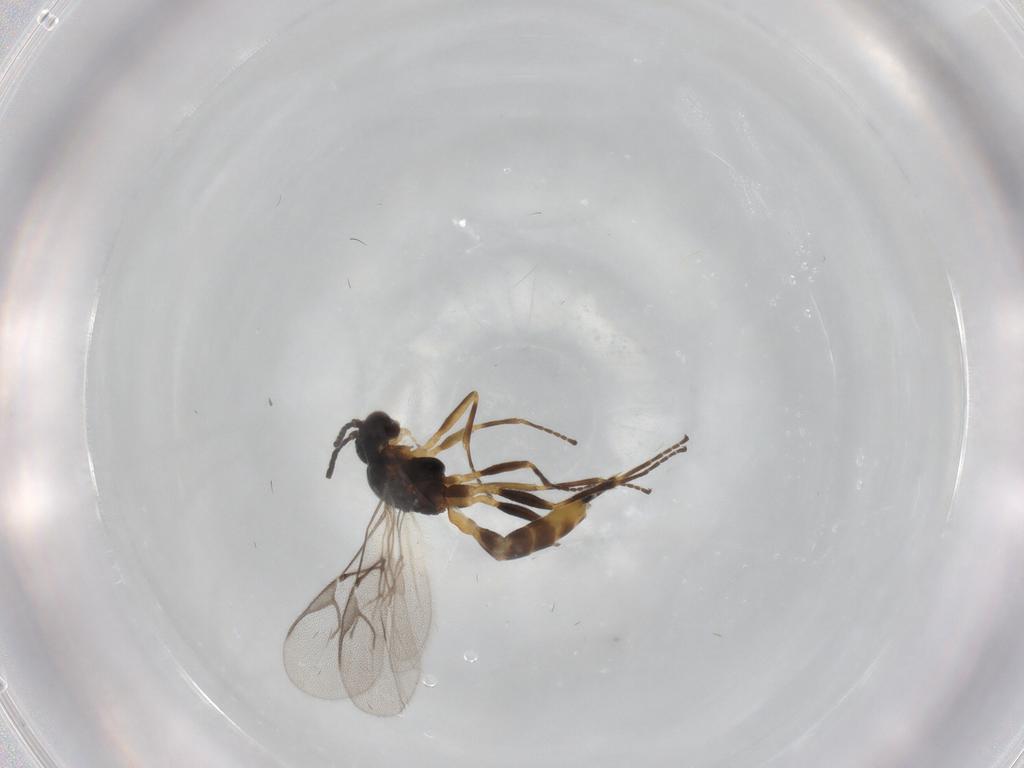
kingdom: Animalia
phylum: Arthropoda
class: Insecta
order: Hymenoptera
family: Braconidae
